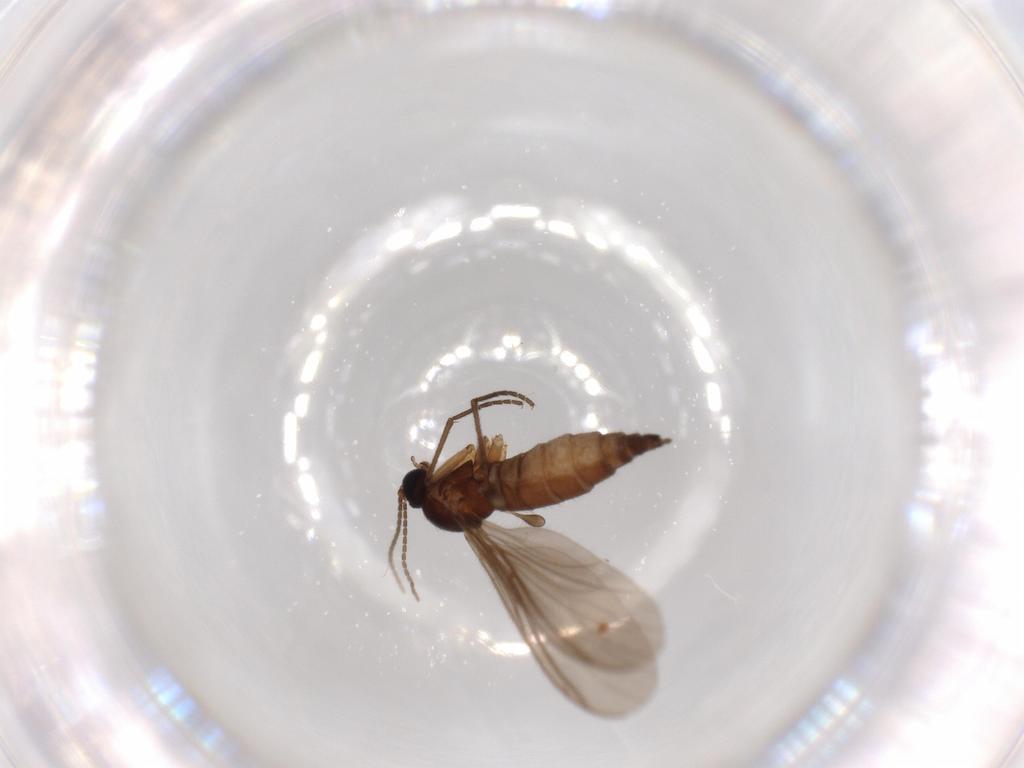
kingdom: Animalia
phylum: Arthropoda
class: Insecta
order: Diptera
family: Sciaridae
